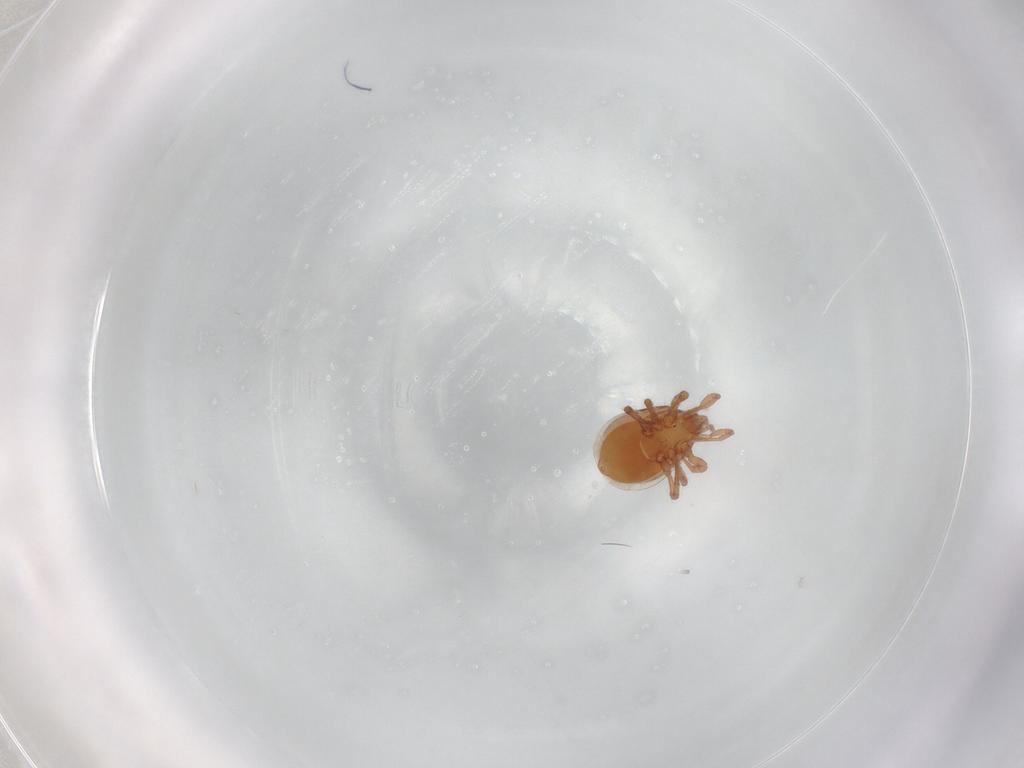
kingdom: Animalia
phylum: Arthropoda
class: Arachnida
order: Mesostigmata
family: Parasitidae
